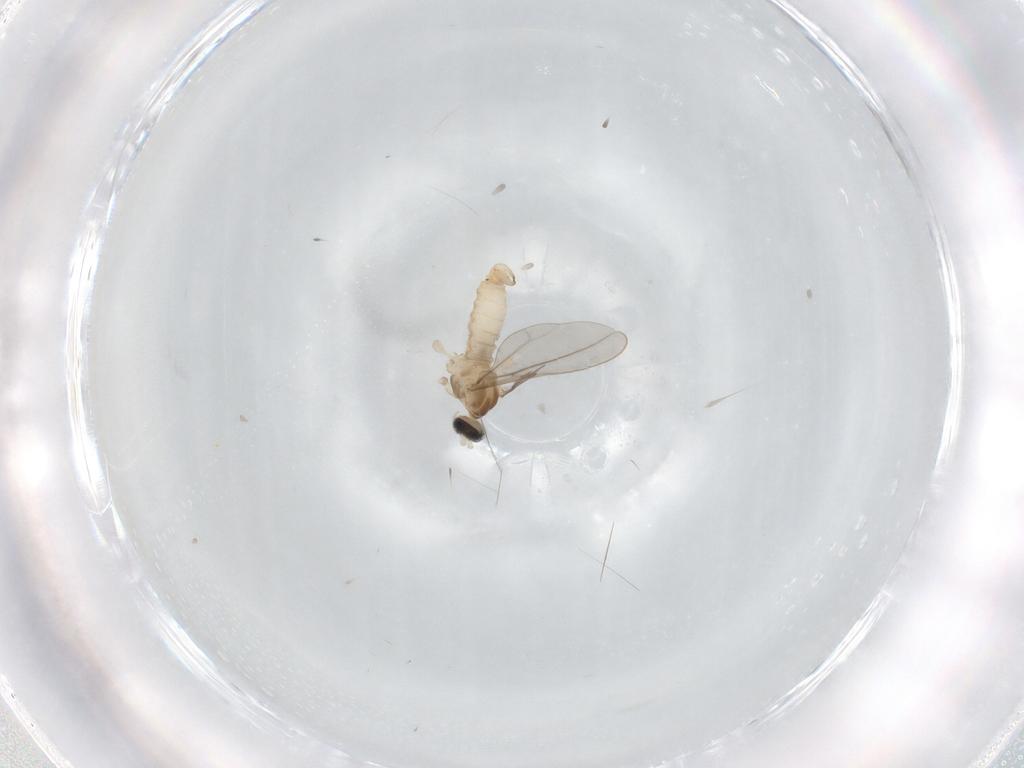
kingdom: Animalia
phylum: Arthropoda
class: Insecta
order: Diptera
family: Cecidomyiidae
